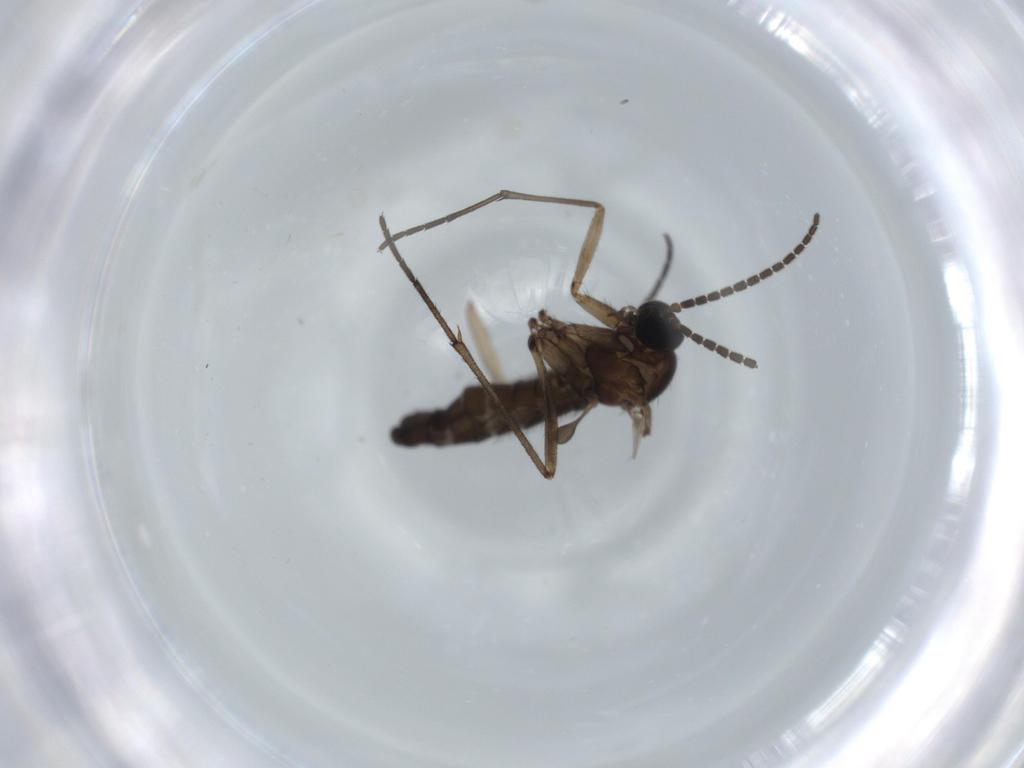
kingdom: Animalia
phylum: Arthropoda
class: Insecta
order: Diptera
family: Sciaridae
